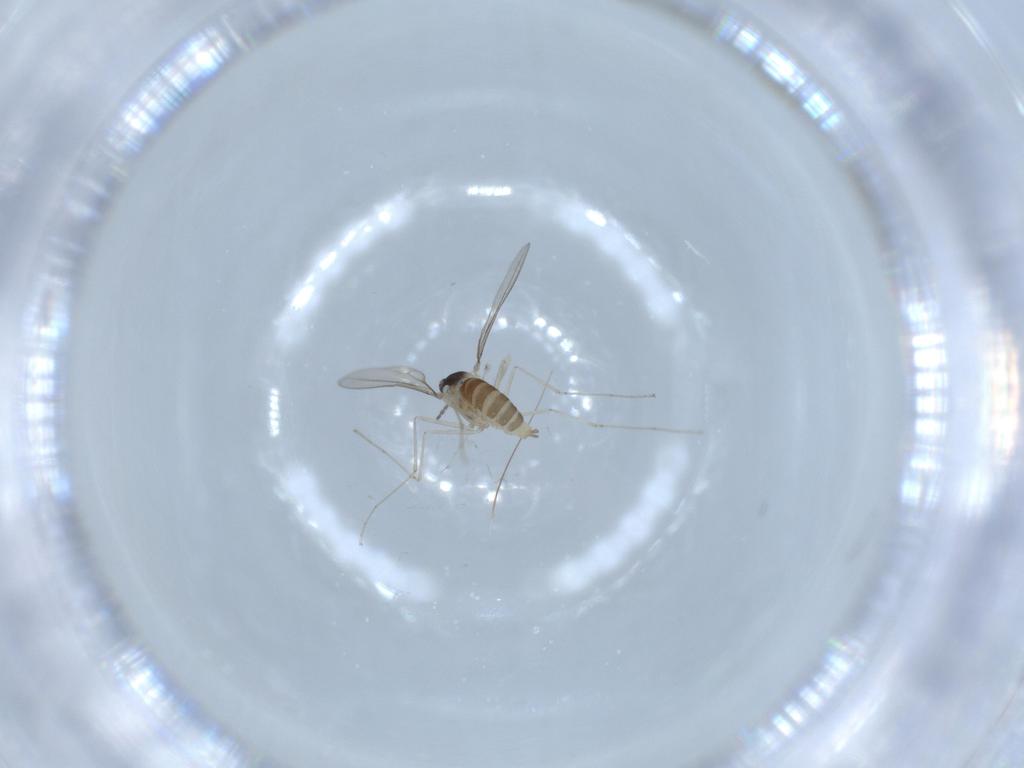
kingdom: Animalia
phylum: Arthropoda
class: Insecta
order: Diptera
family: Cecidomyiidae
